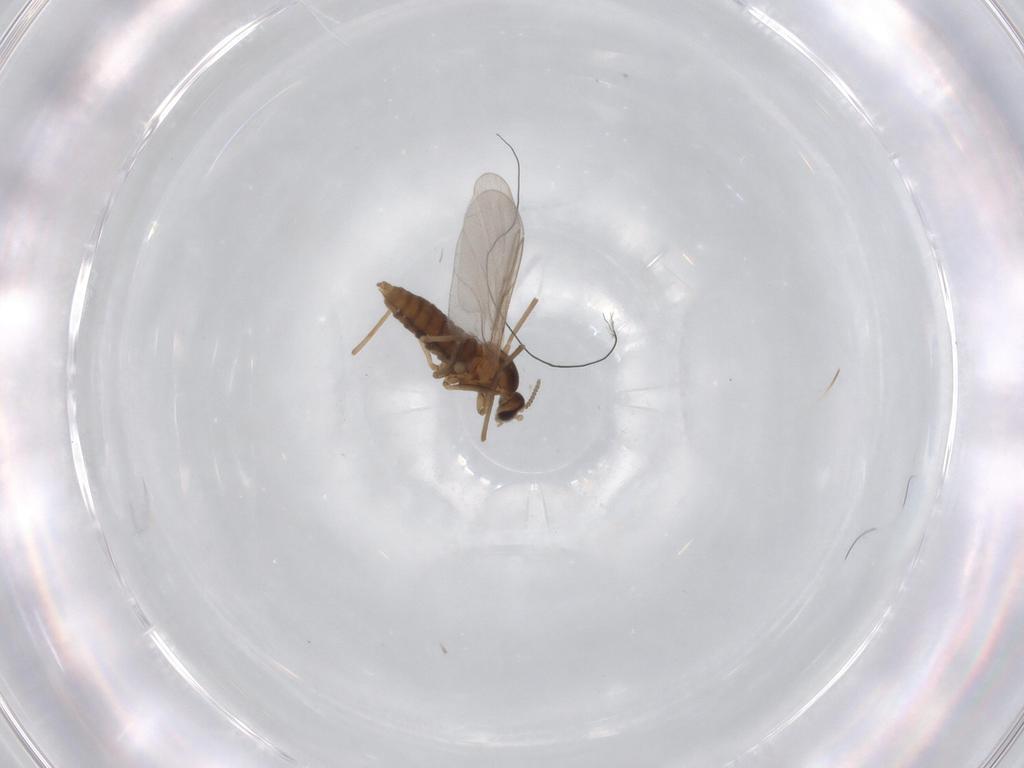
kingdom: Animalia
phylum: Arthropoda
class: Insecta
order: Diptera
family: Cecidomyiidae
